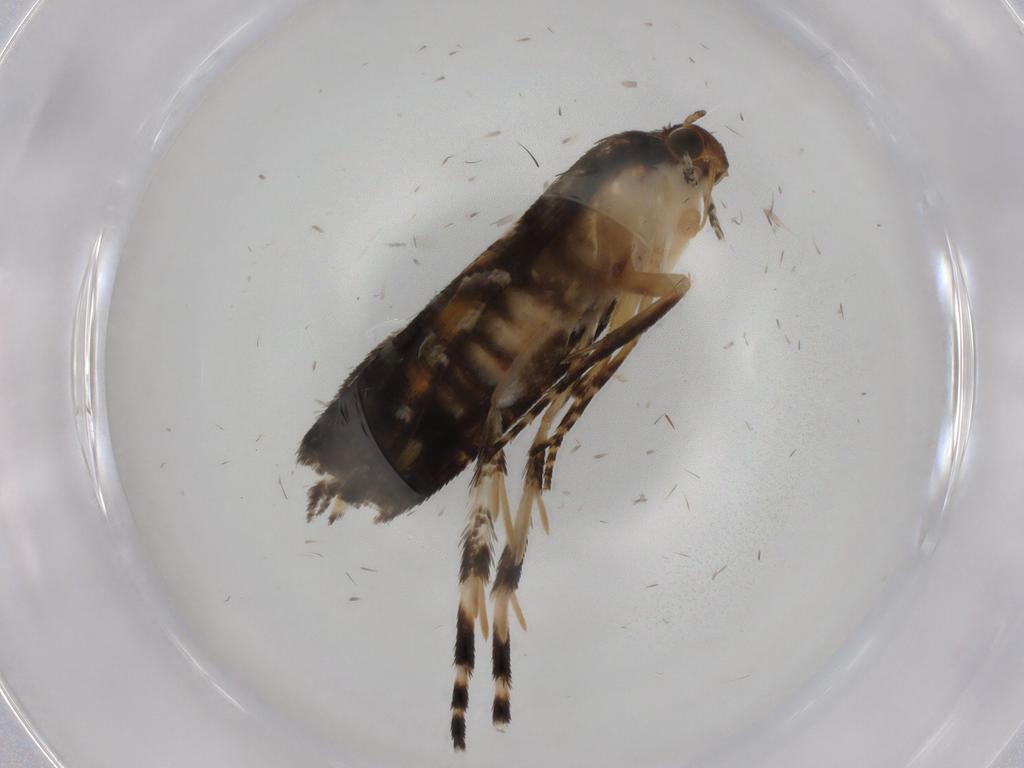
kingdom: Animalia
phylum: Arthropoda
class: Insecta
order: Lepidoptera
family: Glyphipterigidae
